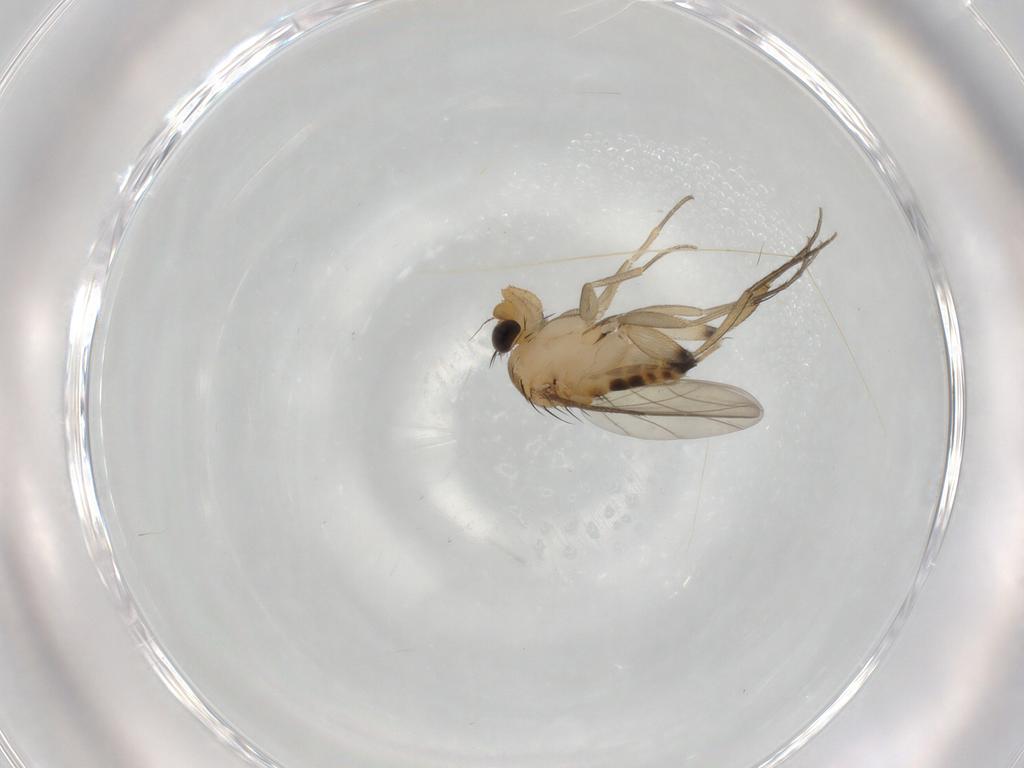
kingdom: Animalia
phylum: Arthropoda
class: Insecta
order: Diptera
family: Phoridae
